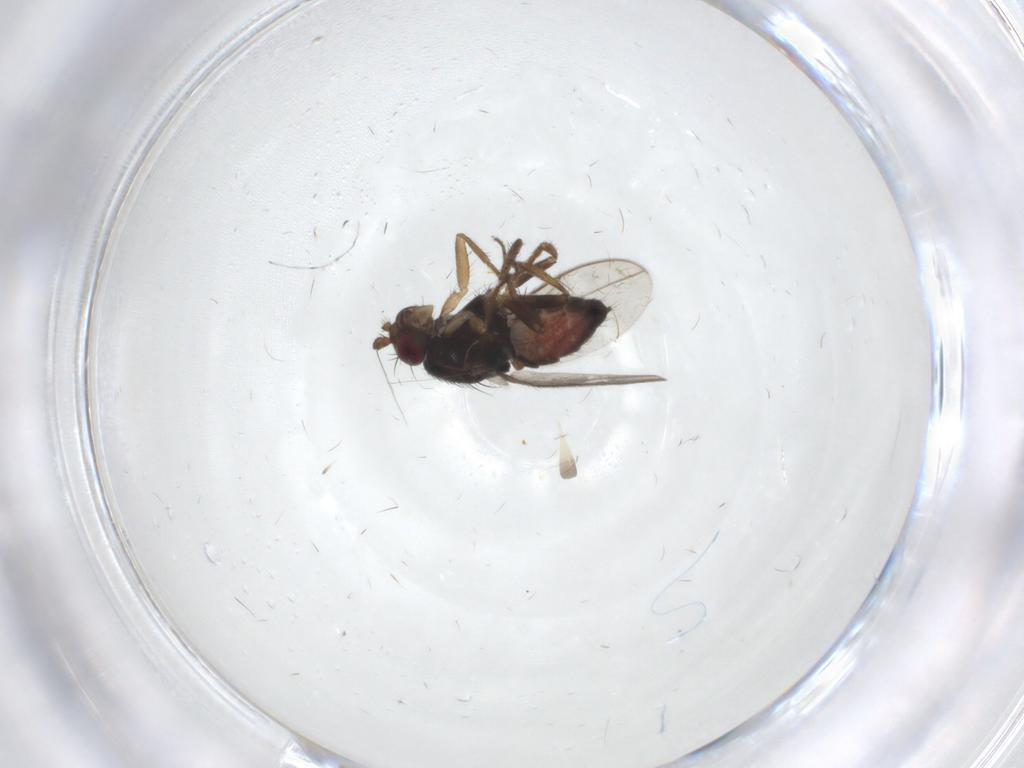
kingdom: Animalia
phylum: Arthropoda
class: Insecta
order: Diptera
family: Sphaeroceridae
